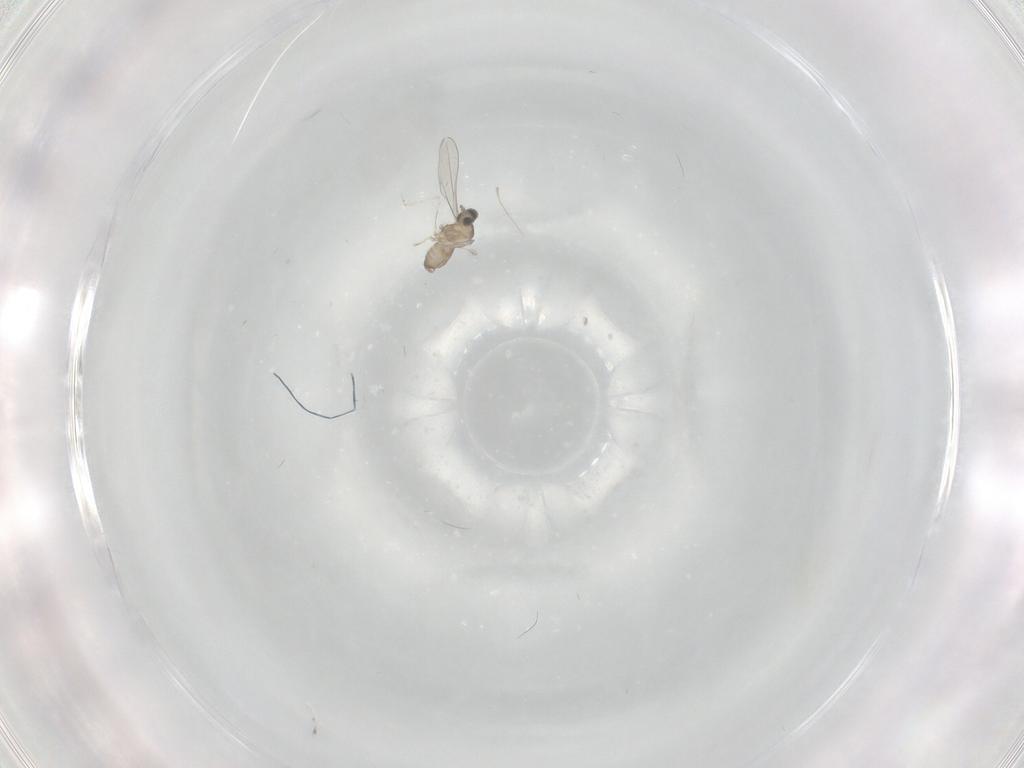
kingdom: Animalia
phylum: Arthropoda
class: Insecta
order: Diptera
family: Cecidomyiidae
